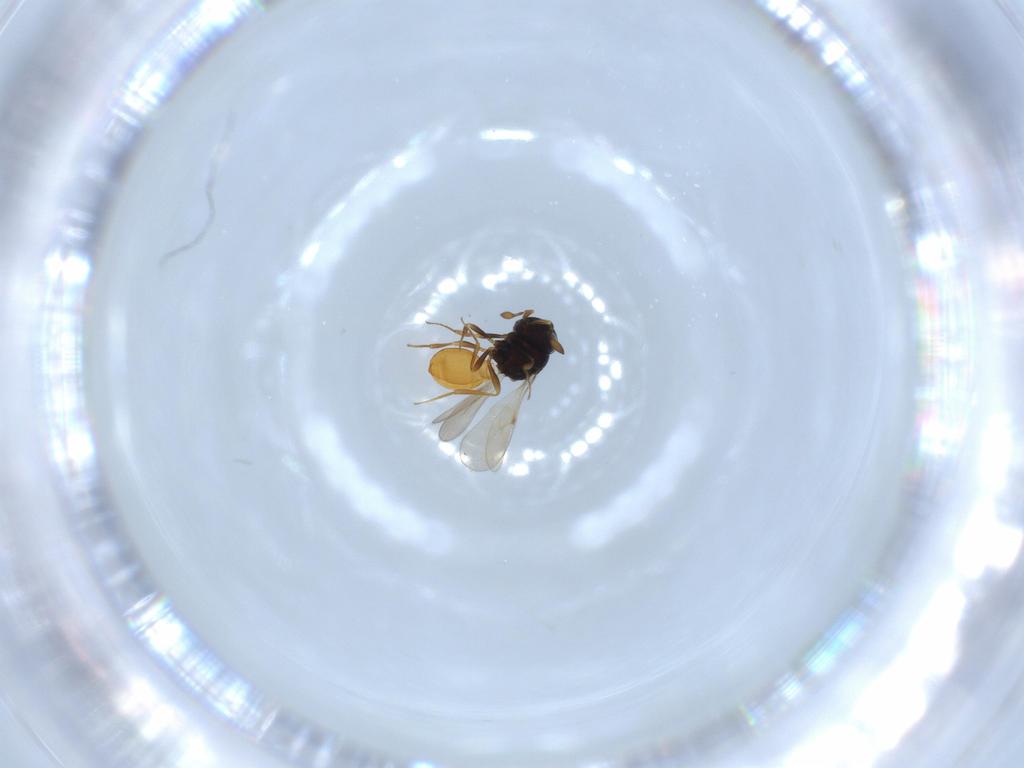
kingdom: Animalia
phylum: Arthropoda
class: Insecta
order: Hymenoptera
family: Scelionidae
